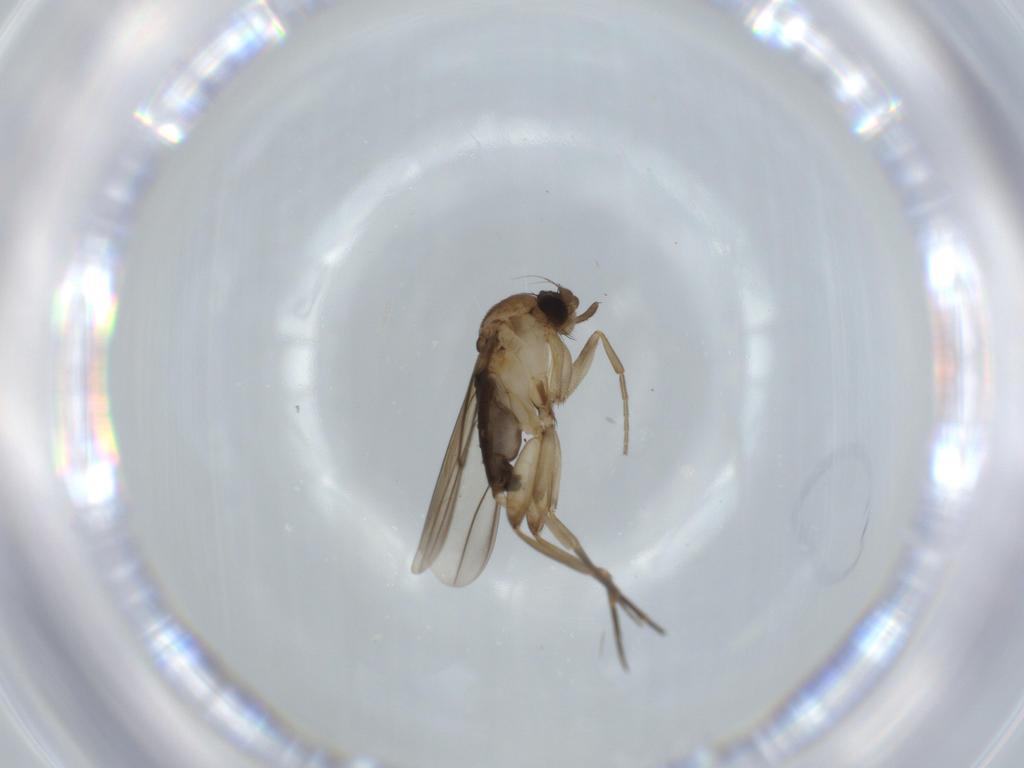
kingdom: Animalia
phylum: Arthropoda
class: Insecta
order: Diptera
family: Phoridae
